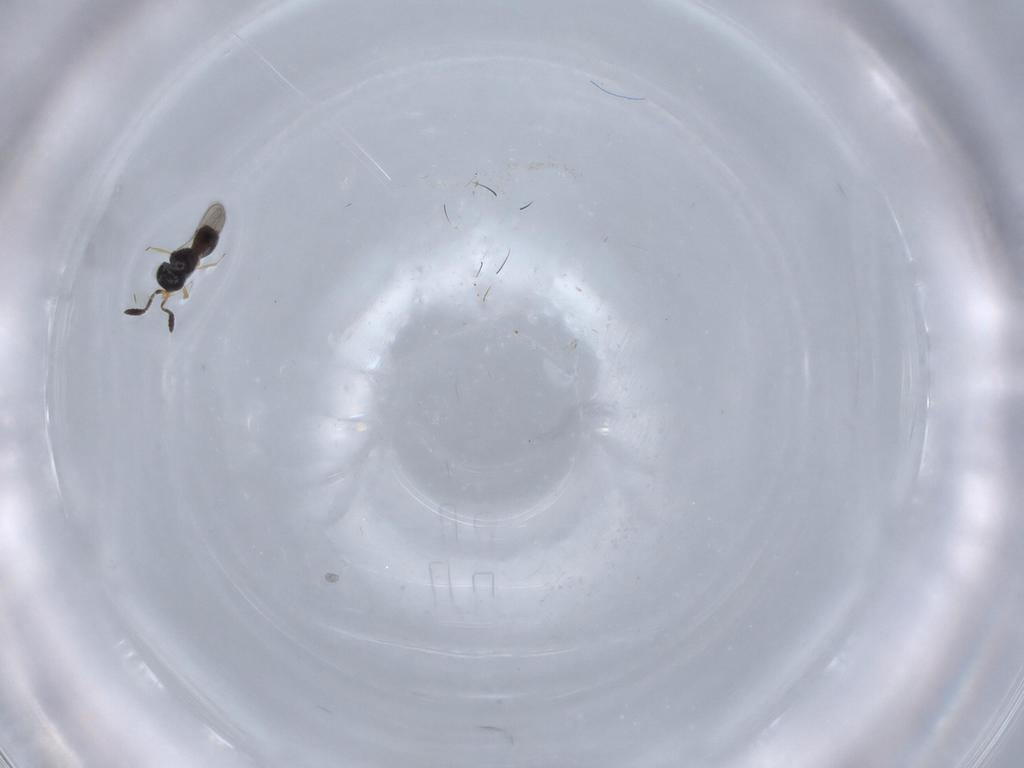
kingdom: Animalia
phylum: Arthropoda
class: Insecta
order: Hymenoptera
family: Scelionidae
